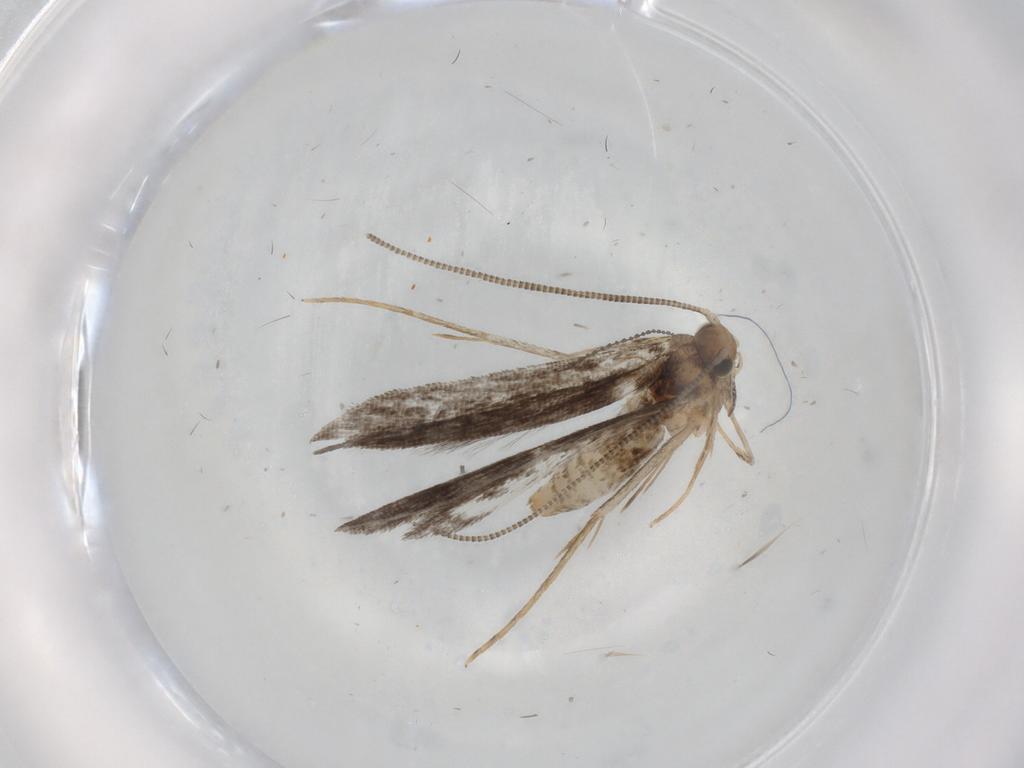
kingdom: Animalia
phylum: Arthropoda
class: Insecta
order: Lepidoptera
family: Tineidae
